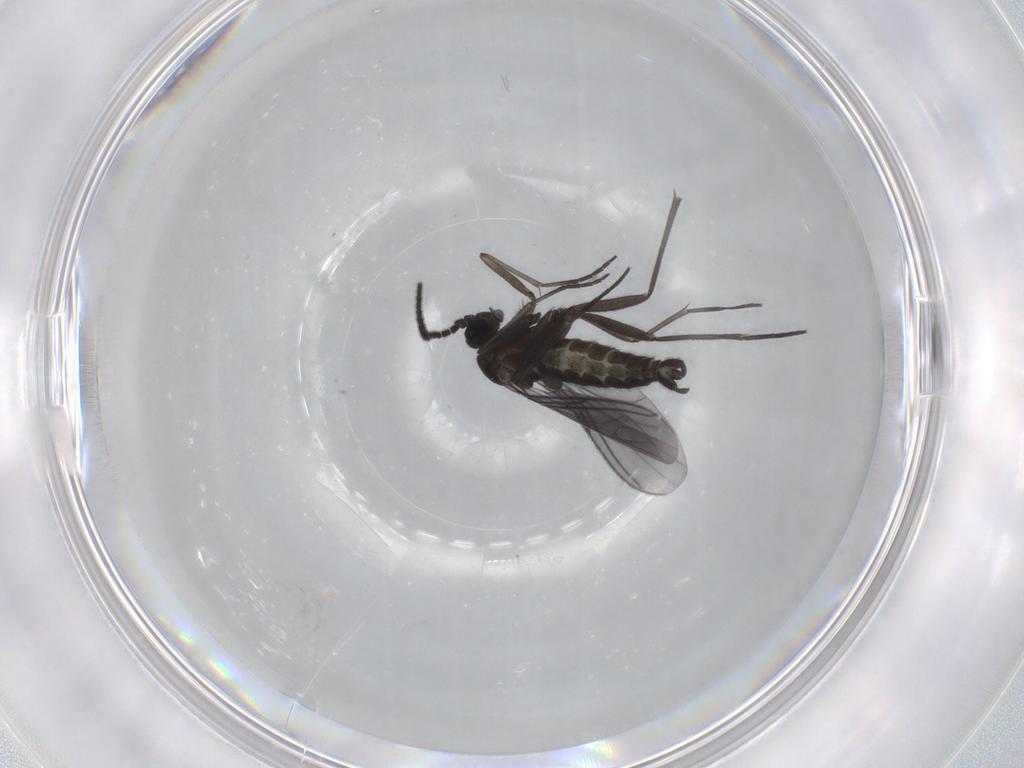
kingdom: Animalia
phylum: Arthropoda
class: Insecta
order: Diptera
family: Sciaridae
